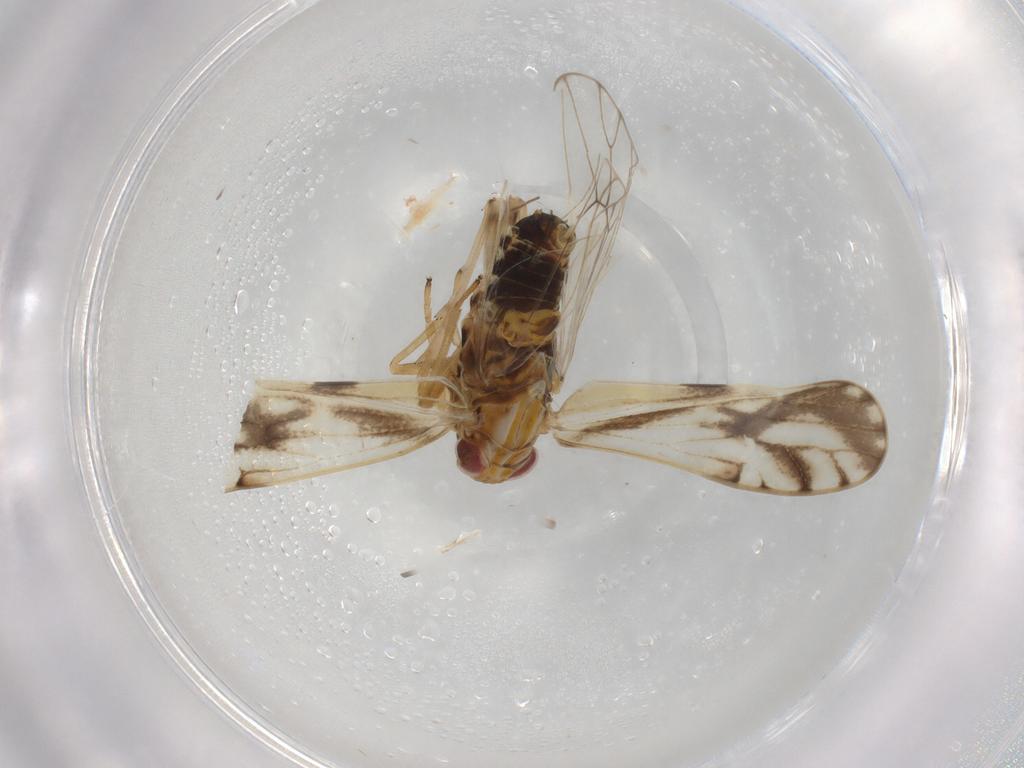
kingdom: Animalia
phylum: Arthropoda
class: Insecta
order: Hemiptera
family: Delphacidae
